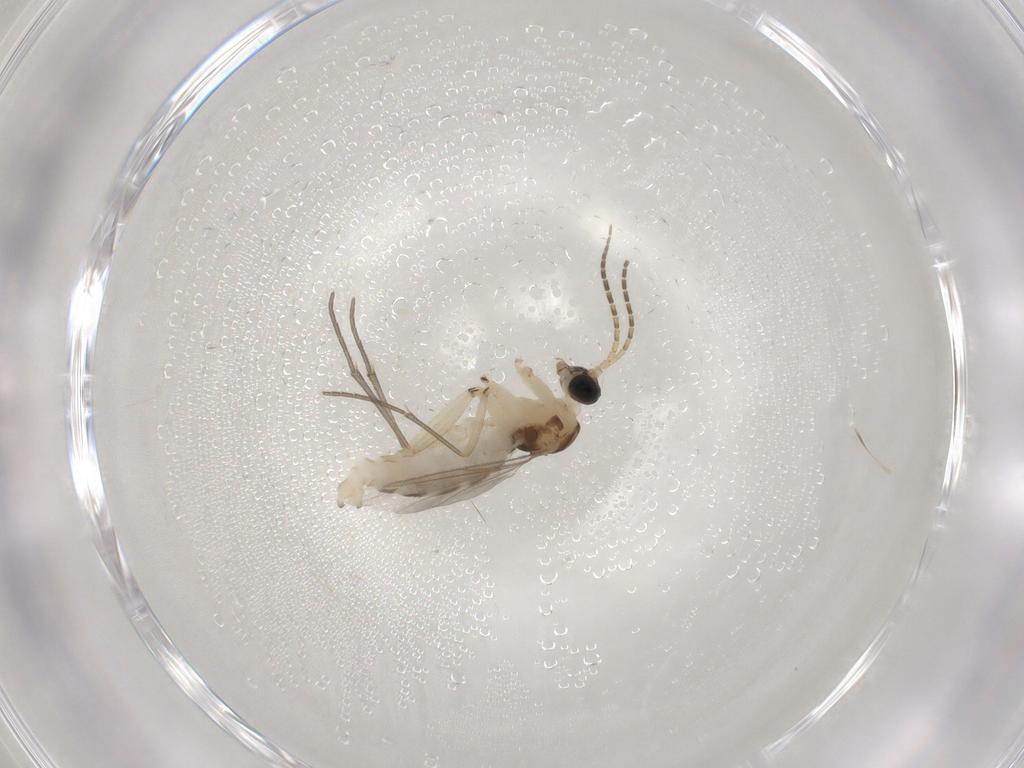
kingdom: Animalia
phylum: Arthropoda
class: Insecta
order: Diptera
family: Sciaridae
